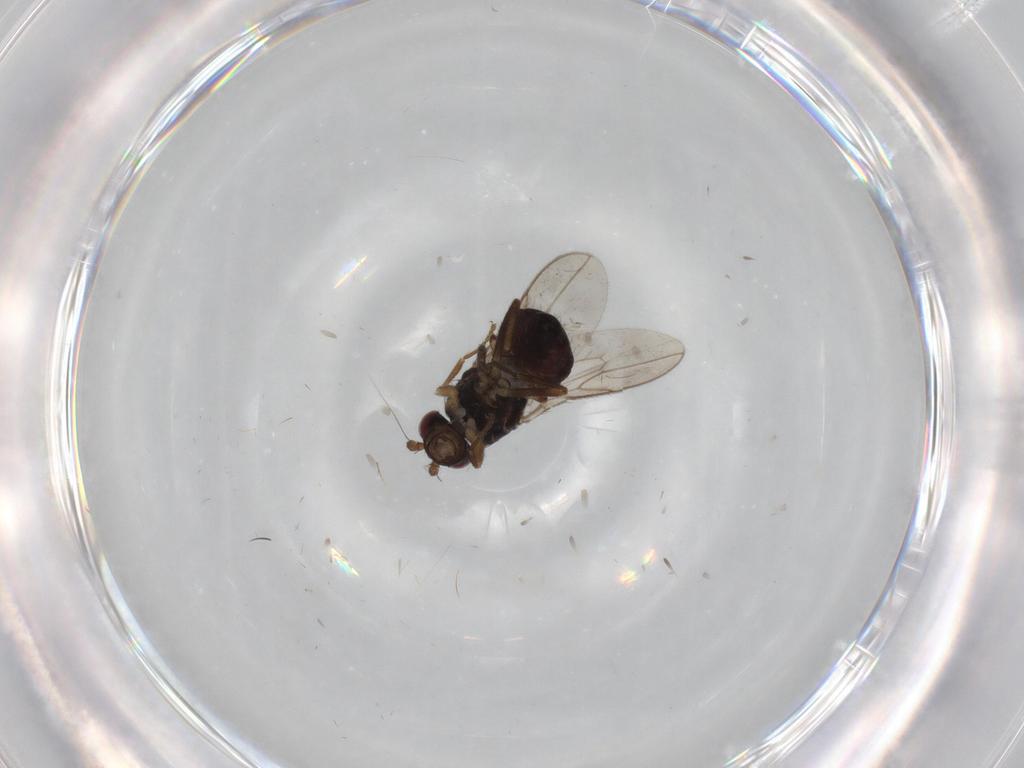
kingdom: Animalia
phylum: Arthropoda
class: Insecta
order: Diptera
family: Sphaeroceridae
